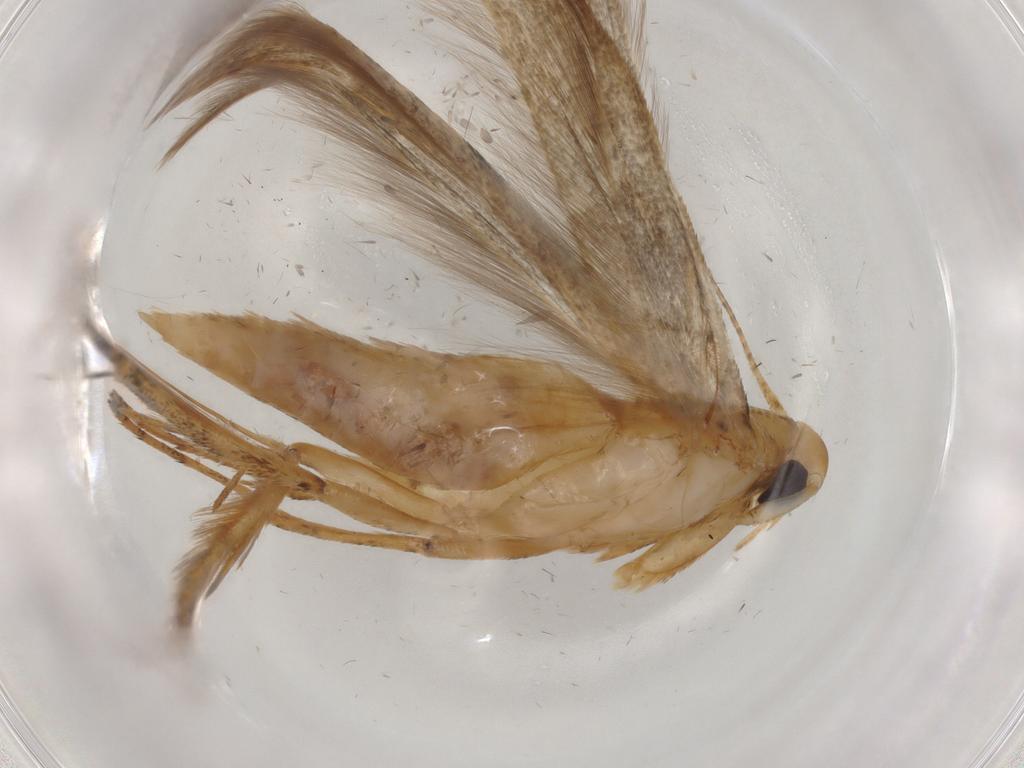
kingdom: Animalia
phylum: Arthropoda
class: Insecta
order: Lepidoptera
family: Erebidae
